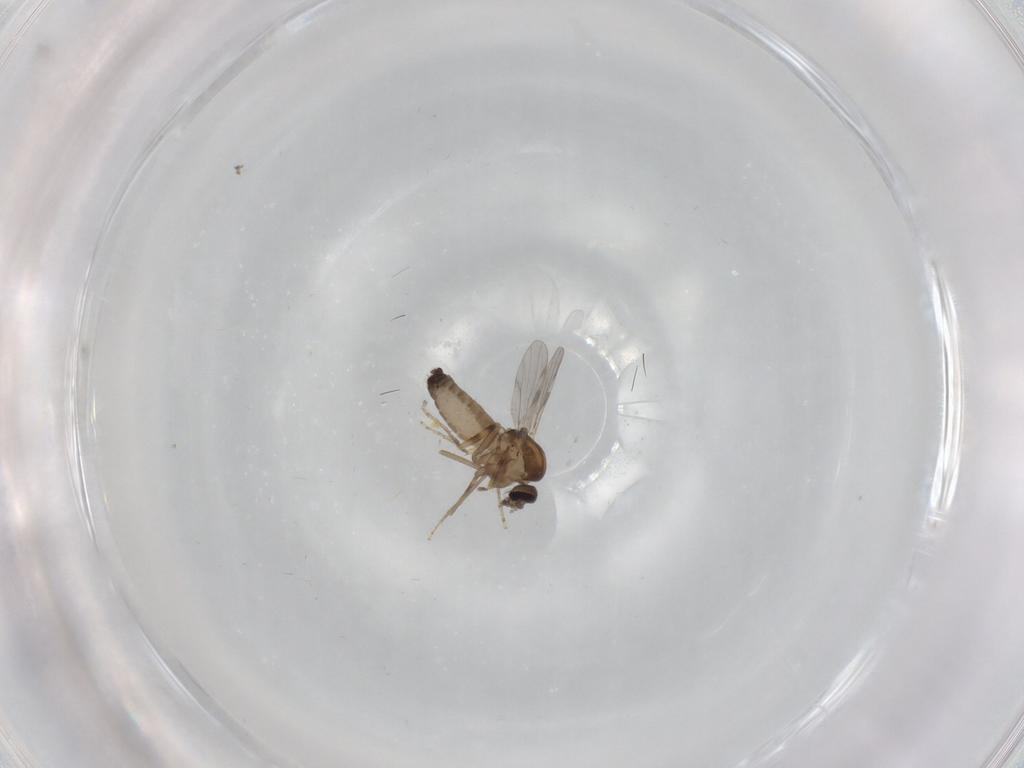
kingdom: Animalia
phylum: Arthropoda
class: Insecta
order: Diptera
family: Ceratopogonidae
